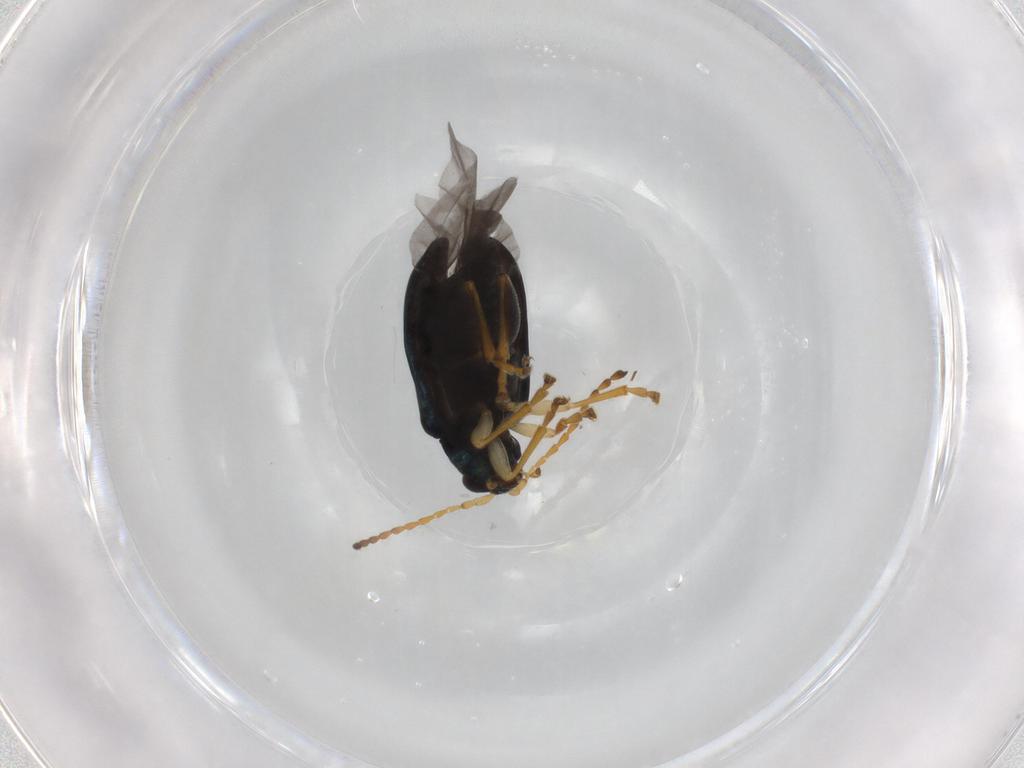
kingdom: Animalia
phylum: Arthropoda
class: Insecta
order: Coleoptera
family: Chrysomelidae
